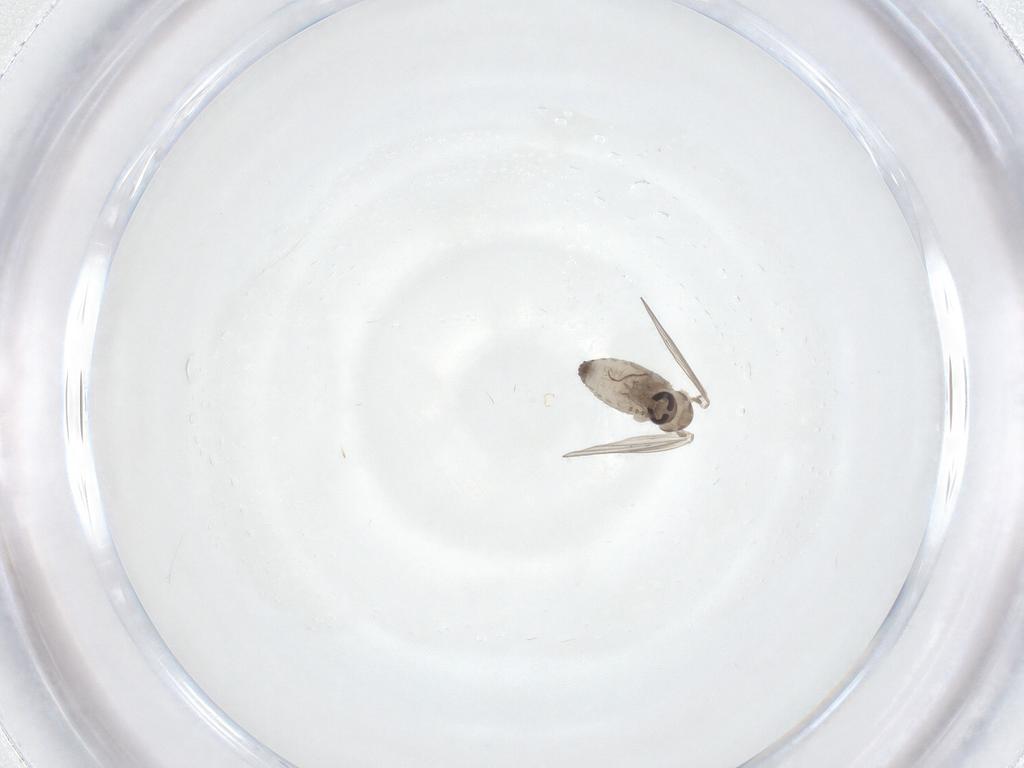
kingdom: Animalia
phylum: Arthropoda
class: Insecta
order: Diptera
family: Psychodidae
